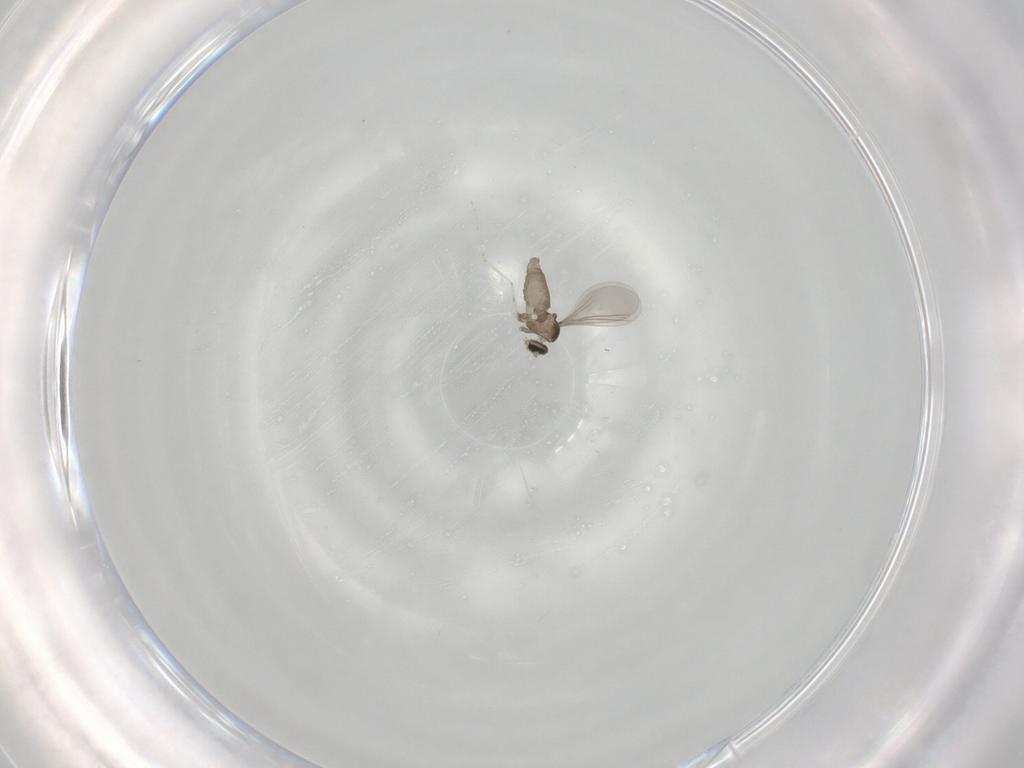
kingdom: Animalia
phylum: Arthropoda
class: Insecta
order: Diptera
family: Cecidomyiidae
